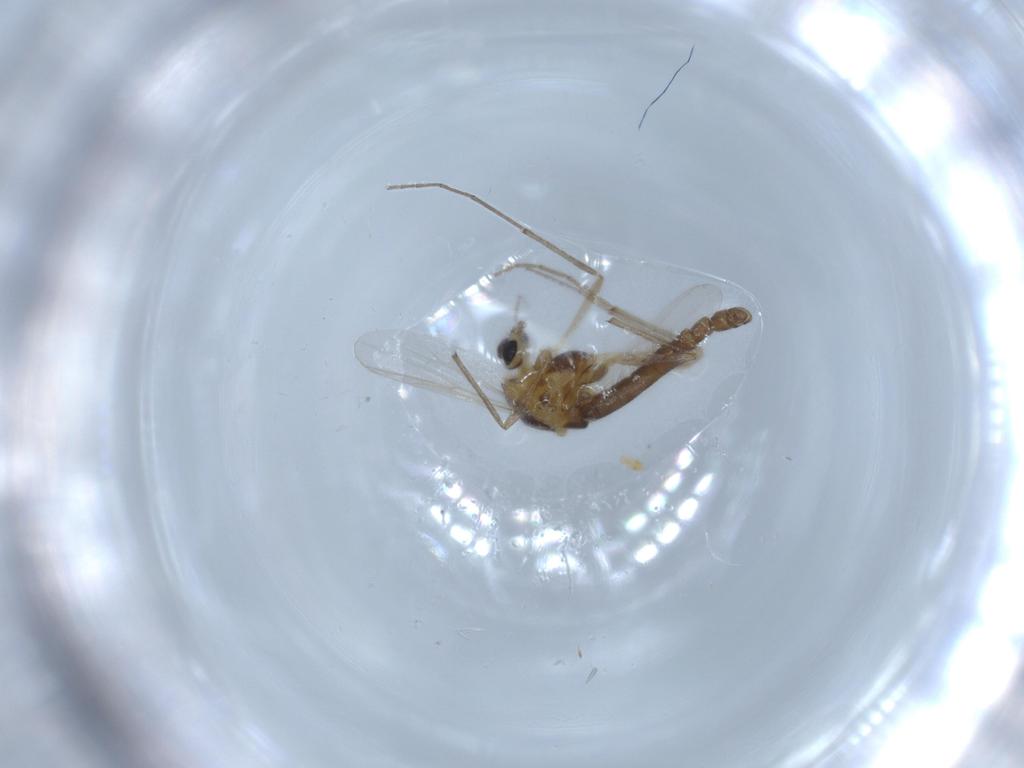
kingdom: Animalia
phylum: Arthropoda
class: Insecta
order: Diptera
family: Chironomidae
